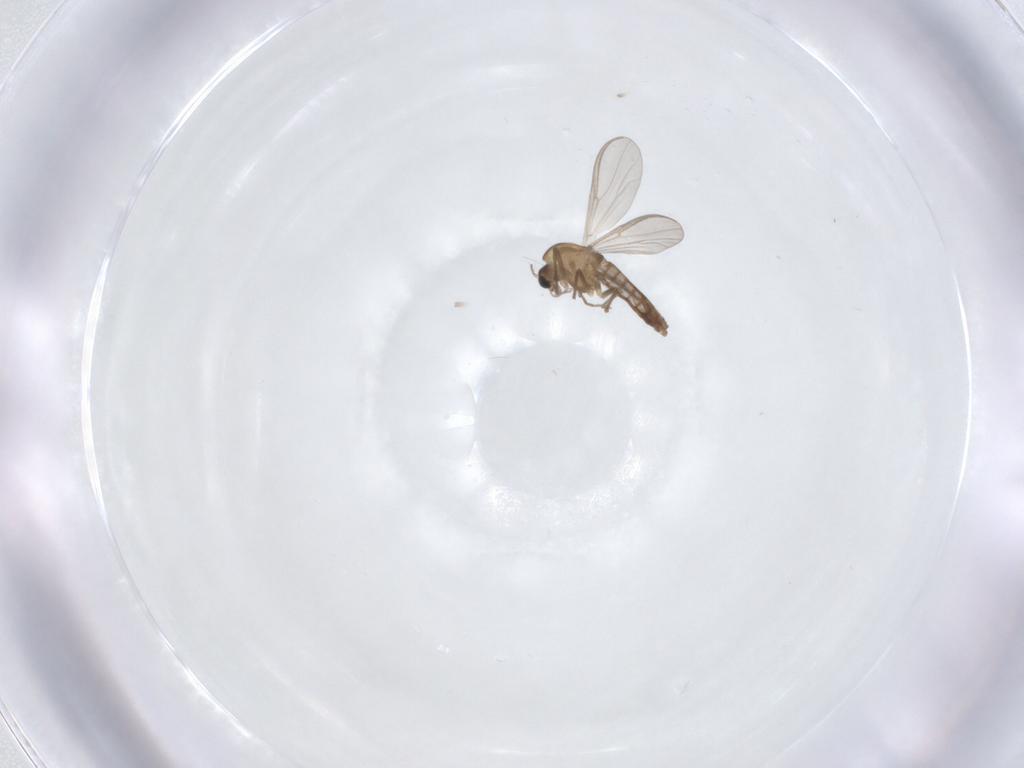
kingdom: Animalia
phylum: Arthropoda
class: Insecta
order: Diptera
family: Chironomidae
